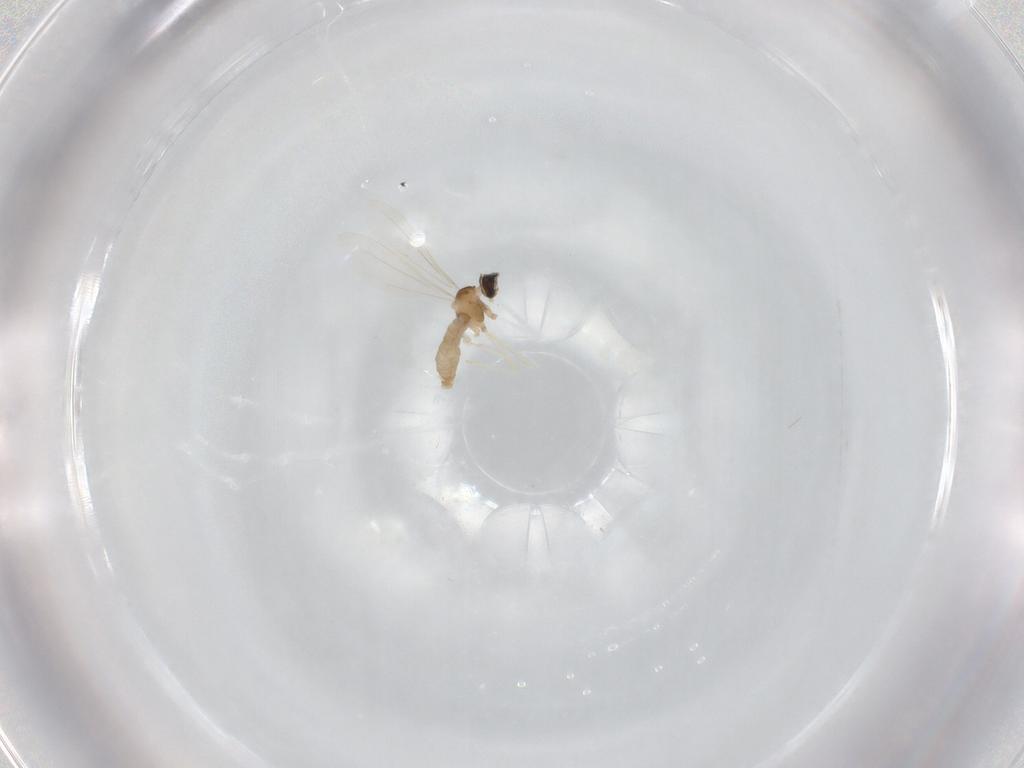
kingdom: Animalia
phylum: Arthropoda
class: Insecta
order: Diptera
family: Cecidomyiidae
